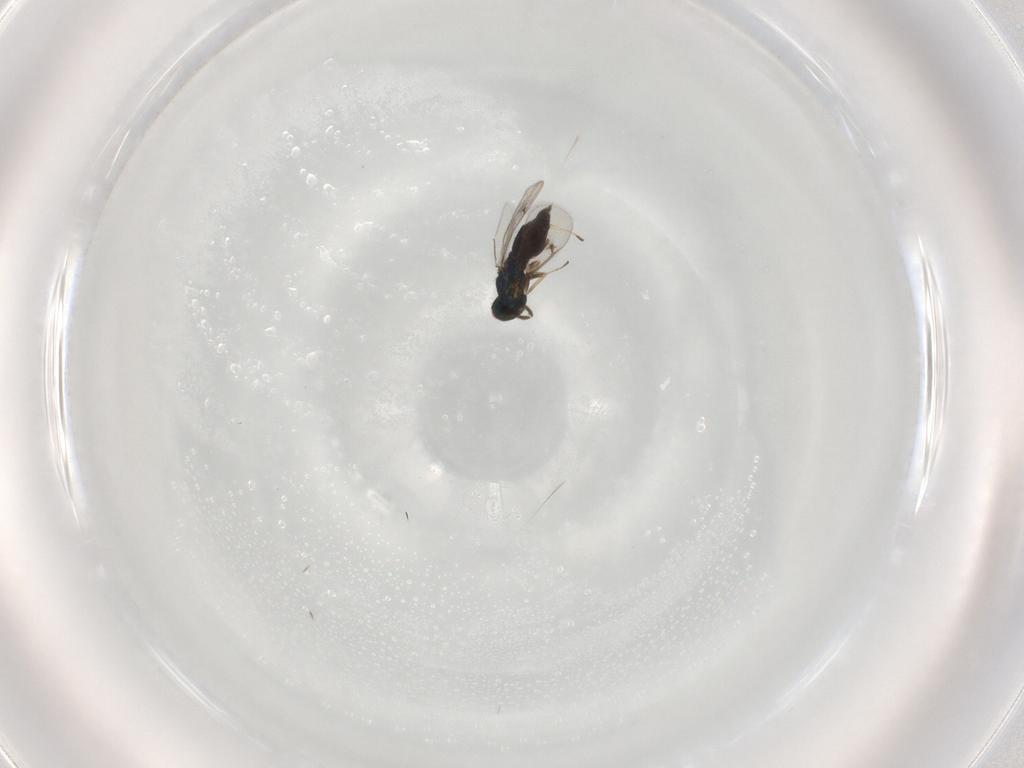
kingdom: Animalia
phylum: Arthropoda
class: Insecta
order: Hymenoptera
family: Eulophidae
